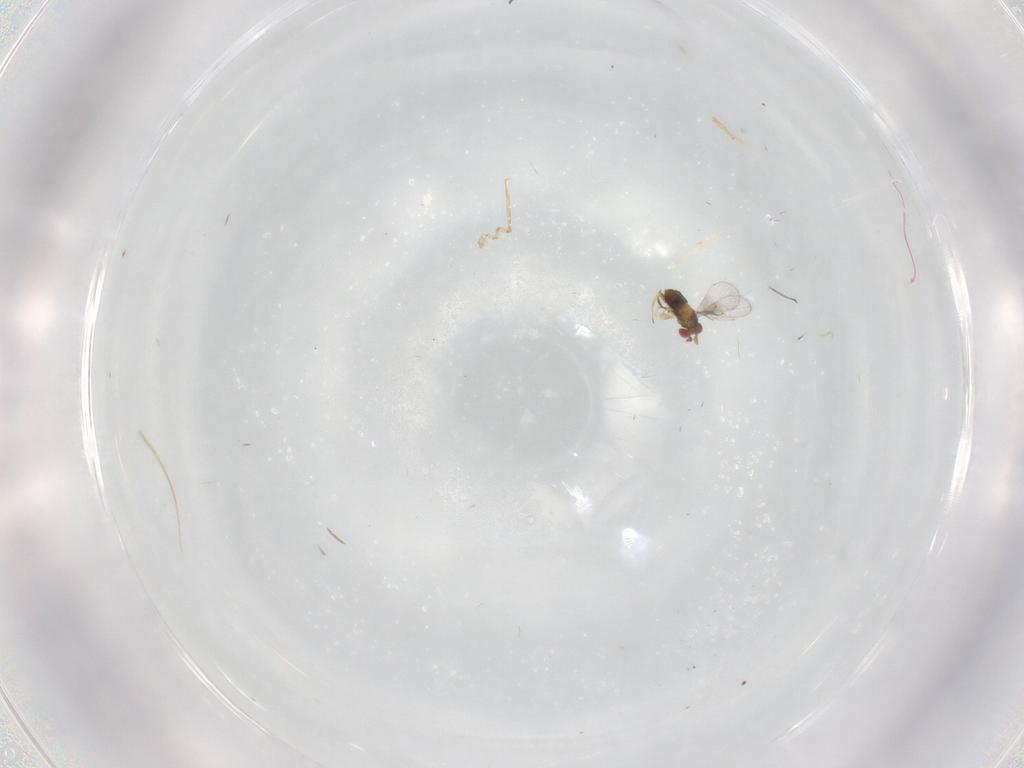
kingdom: Animalia
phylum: Arthropoda
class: Insecta
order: Hymenoptera
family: Trichogrammatidae
